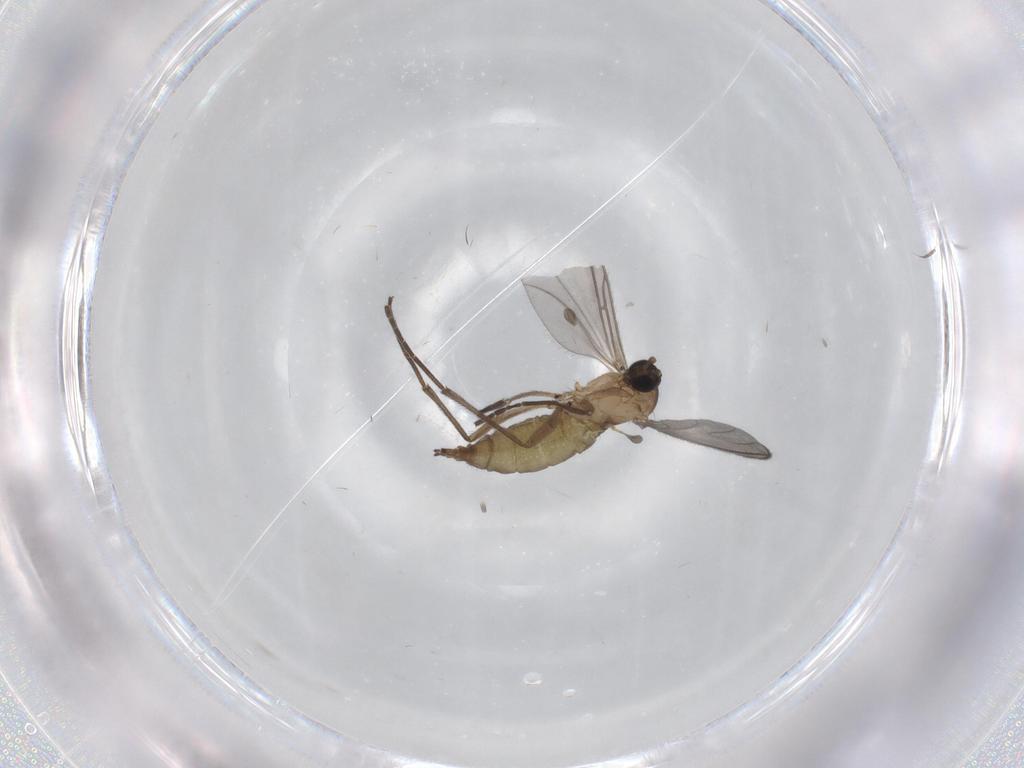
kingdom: Animalia
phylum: Arthropoda
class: Insecta
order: Diptera
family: Sciaridae
